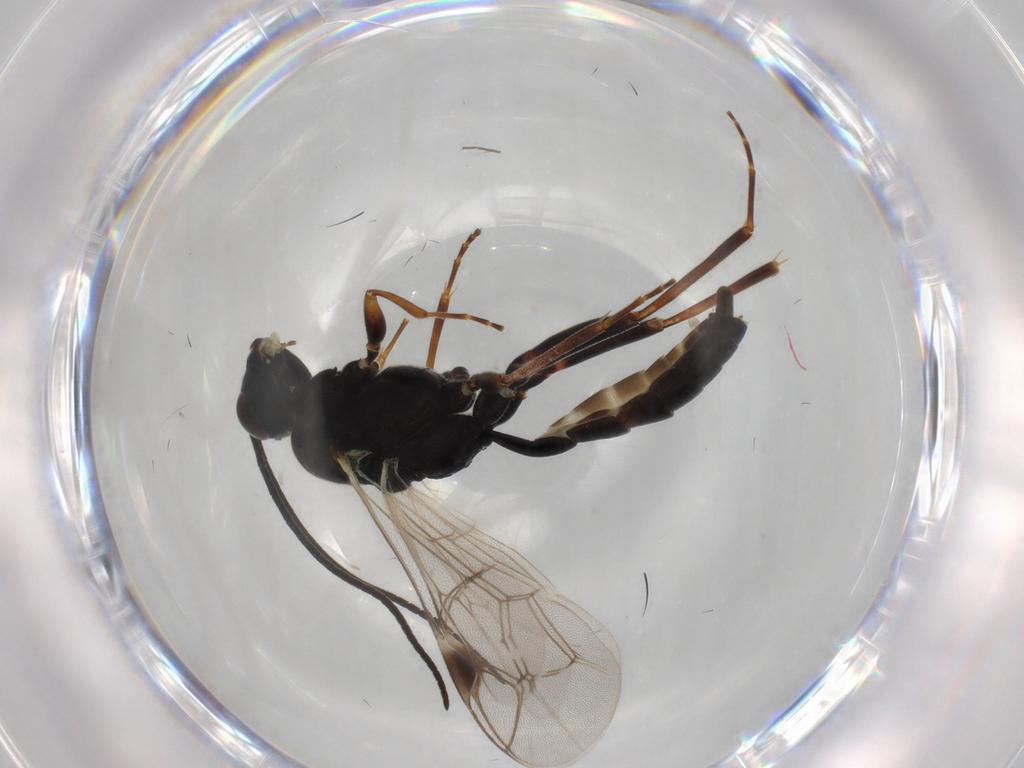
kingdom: Animalia
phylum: Arthropoda
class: Insecta
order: Hymenoptera
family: Ichneumonidae
